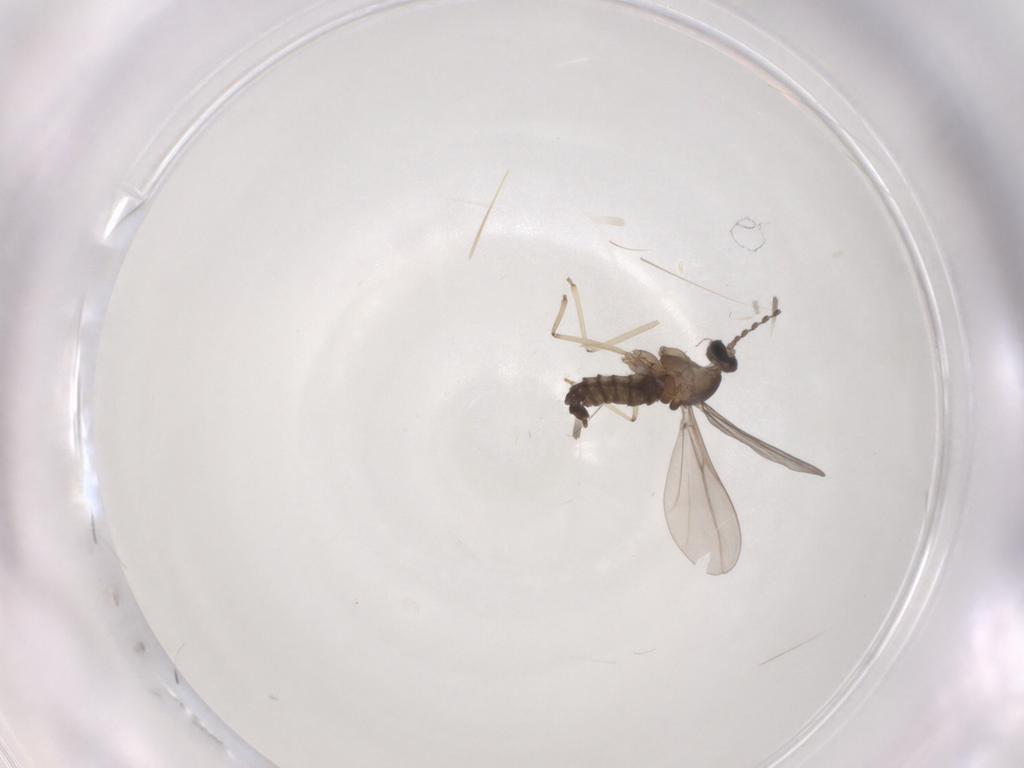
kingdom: Animalia
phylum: Arthropoda
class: Insecta
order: Diptera
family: Cecidomyiidae
